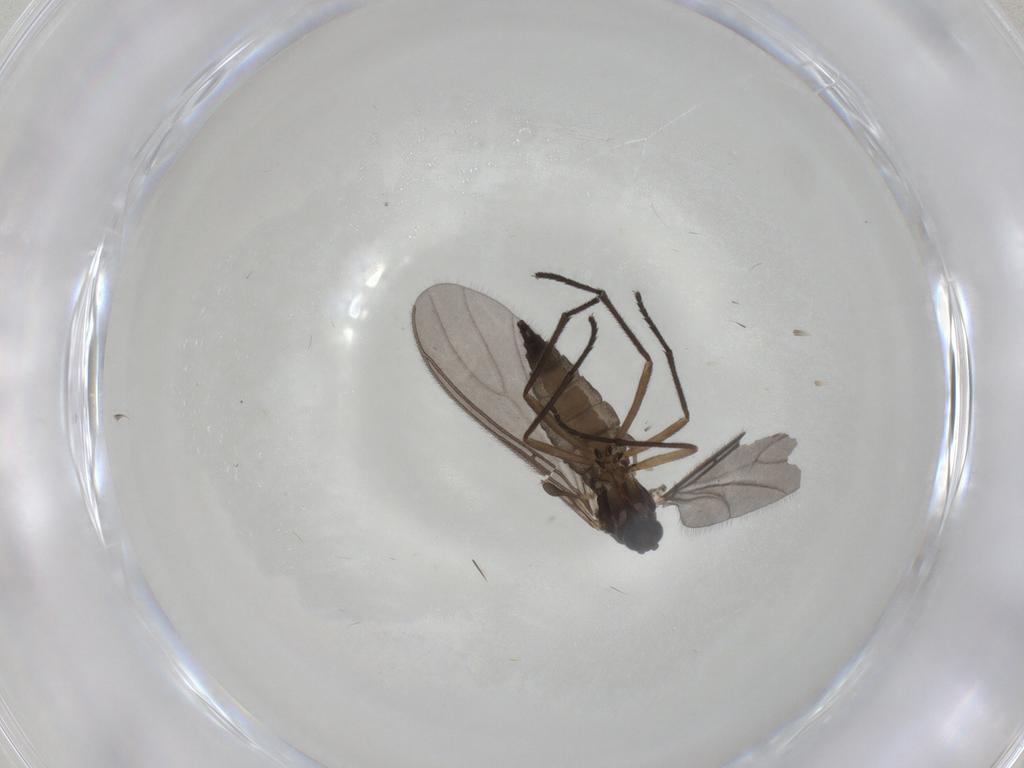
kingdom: Animalia
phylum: Arthropoda
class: Insecta
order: Diptera
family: Sciaridae
